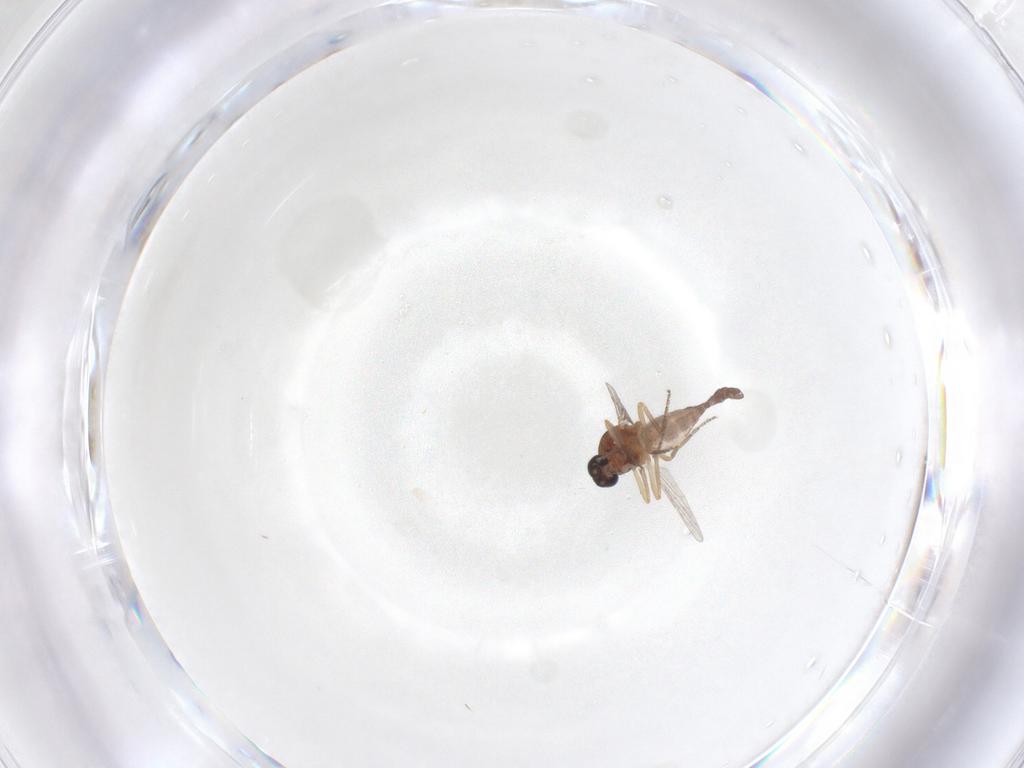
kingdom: Animalia
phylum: Arthropoda
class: Insecta
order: Diptera
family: Ceratopogonidae
